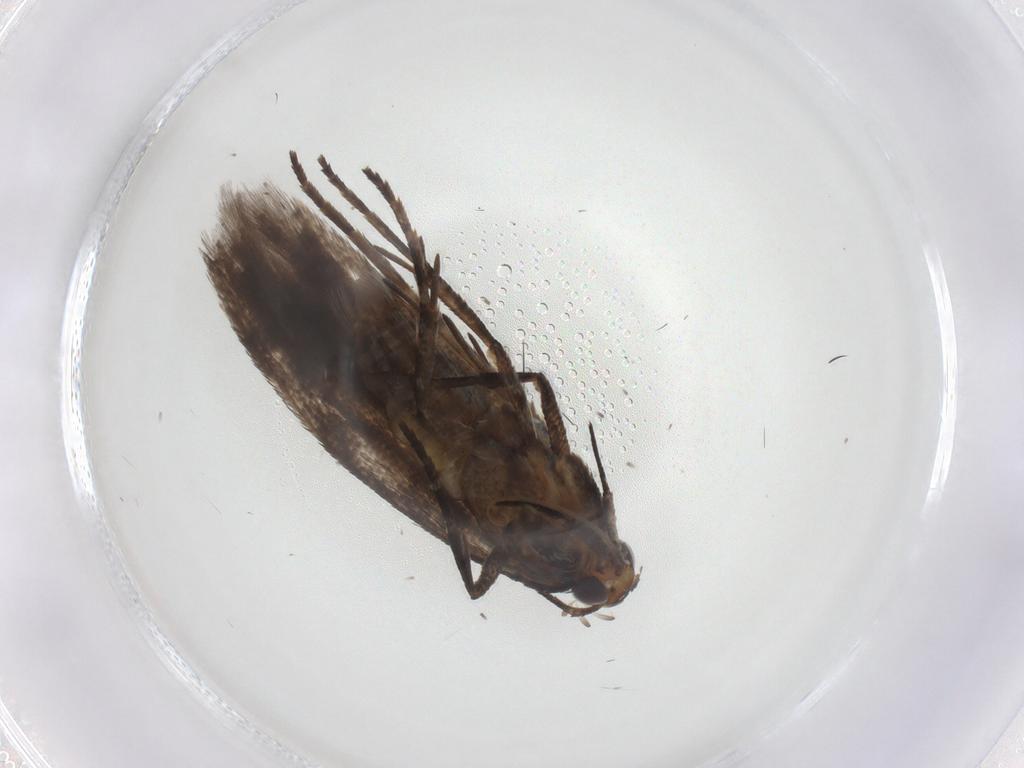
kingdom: Animalia
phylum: Arthropoda
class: Insecta
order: Lepidoptera
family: Gelechiidae
